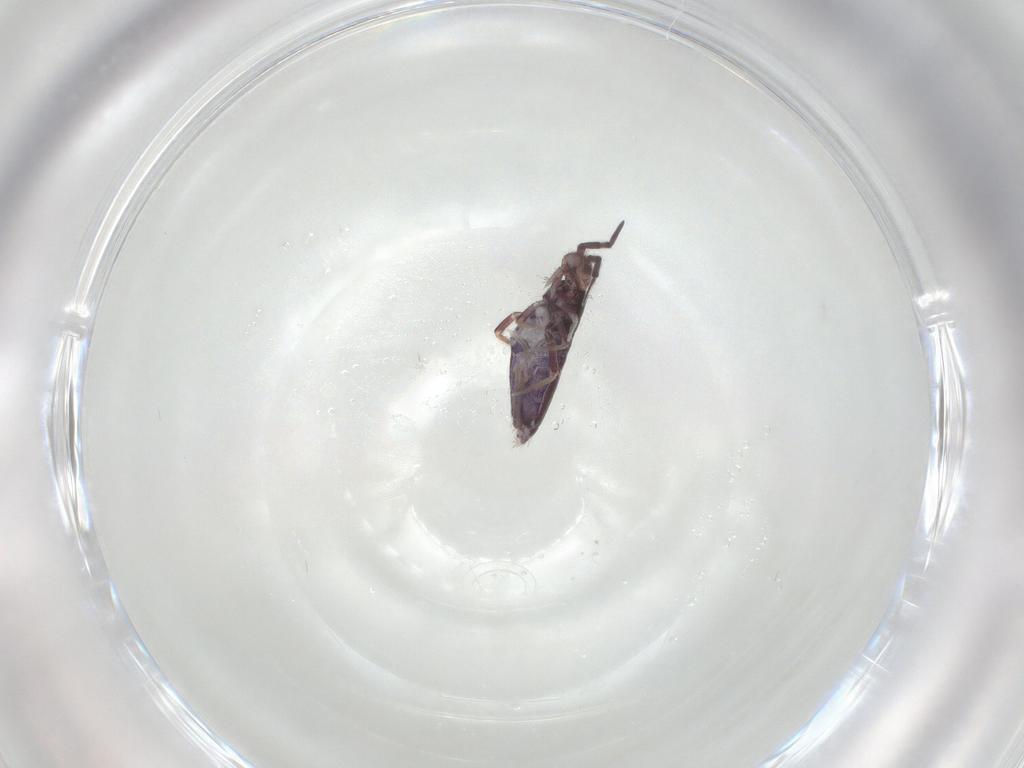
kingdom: Animalia
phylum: Arthropoda
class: Collembola
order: Entomobryomorpha
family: Entomobryidae
